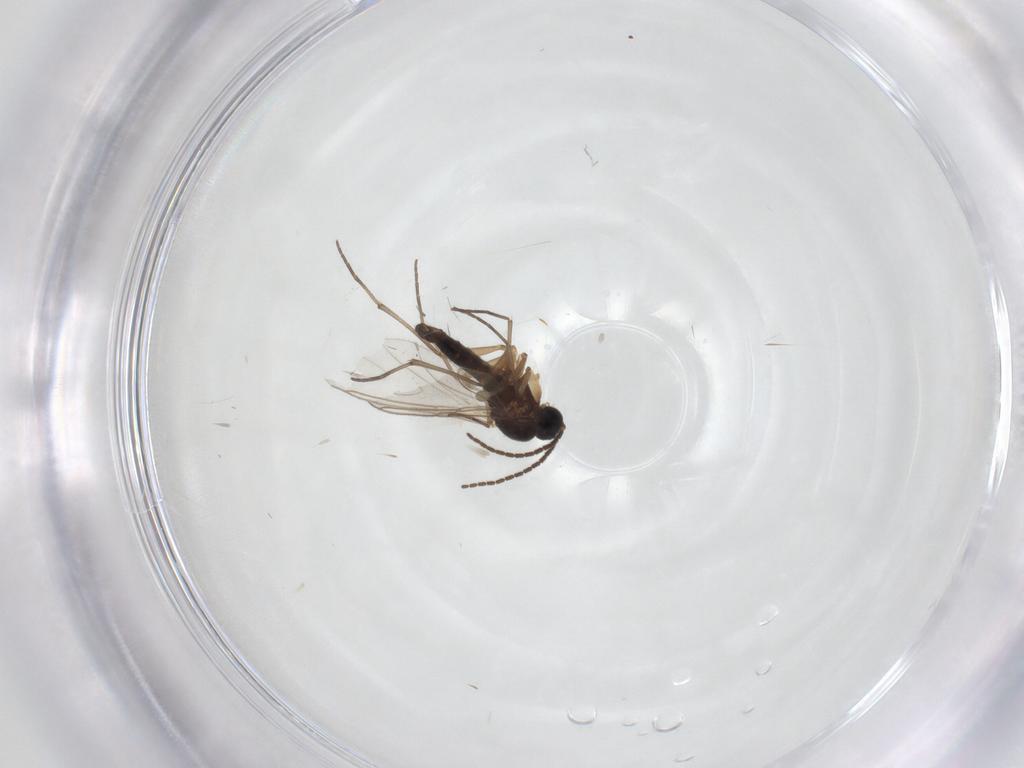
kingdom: Animalia
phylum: Arthropoda
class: Insecta
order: Diptera
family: Sciaridae
